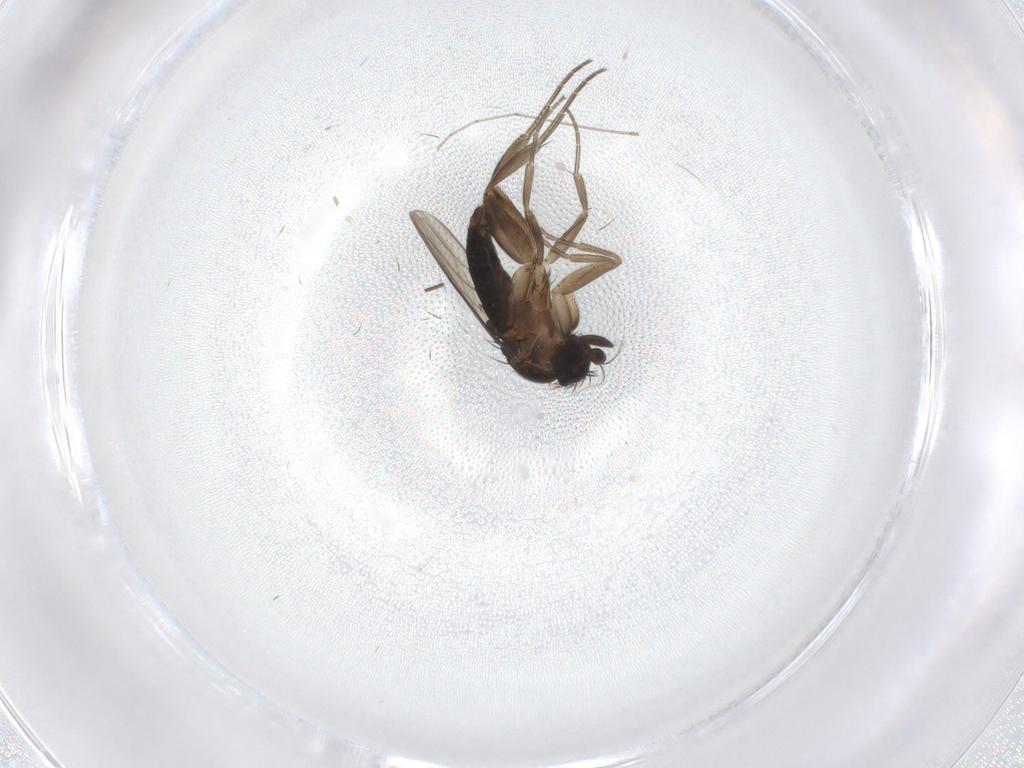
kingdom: Animalia
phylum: Arthropoda
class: Insecta
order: Diptera
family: Phoridae
